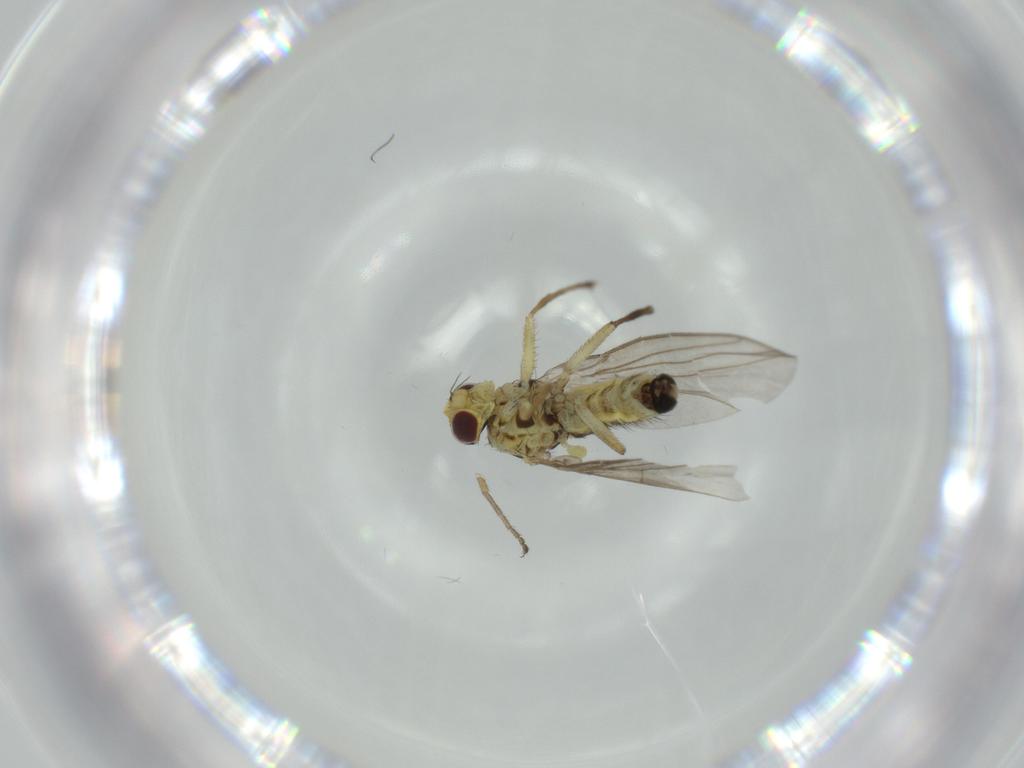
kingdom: Animalia
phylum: Arthropoda
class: Insecta
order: Diptera
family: Agromyzidae
